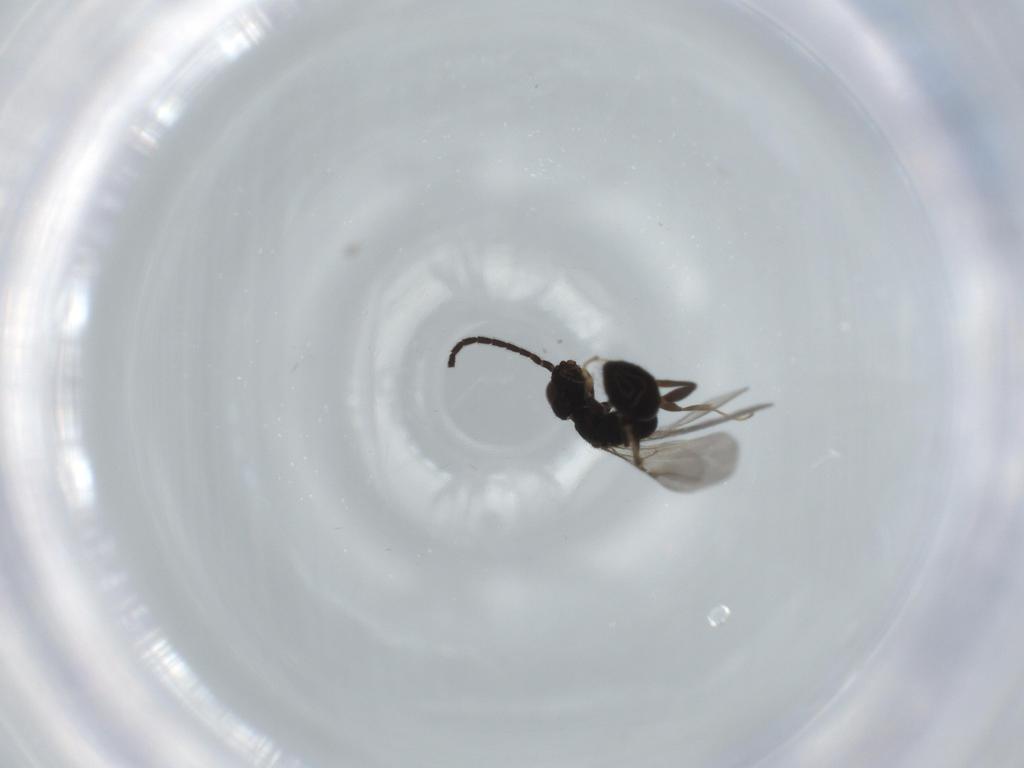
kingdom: Animalia
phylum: Arthropoda
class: Insecta
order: Hymenoptera
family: Bethylidae
